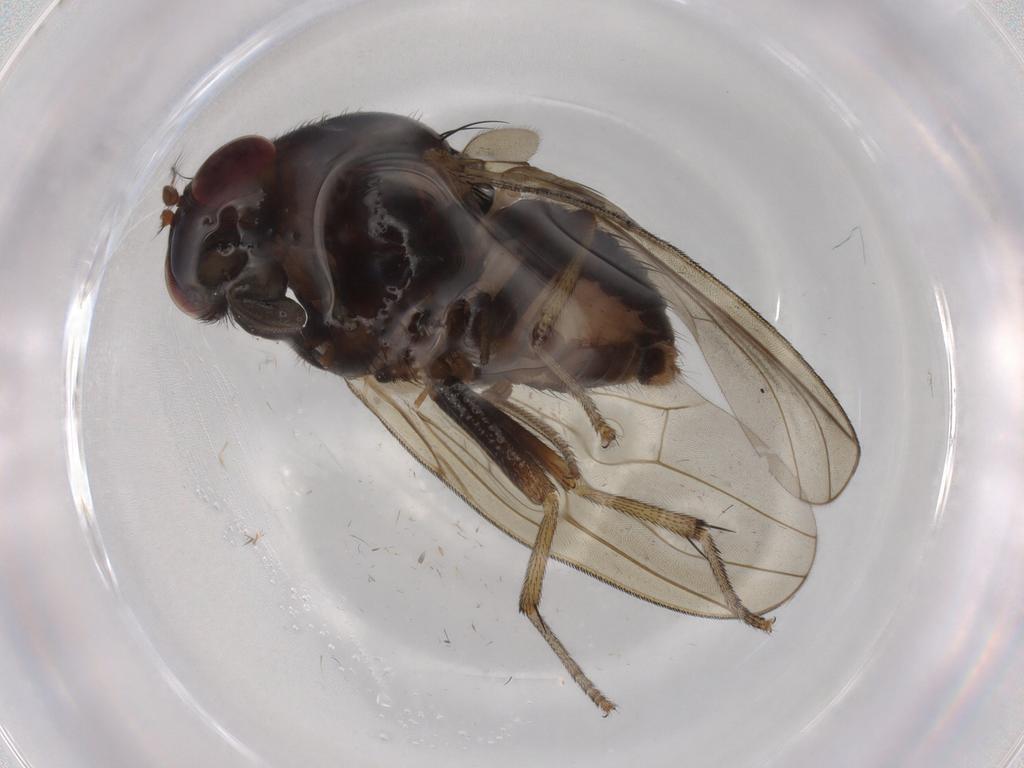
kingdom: Animalia
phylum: Arthropoda
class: Insecta
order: Diptera
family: Limoniidae
